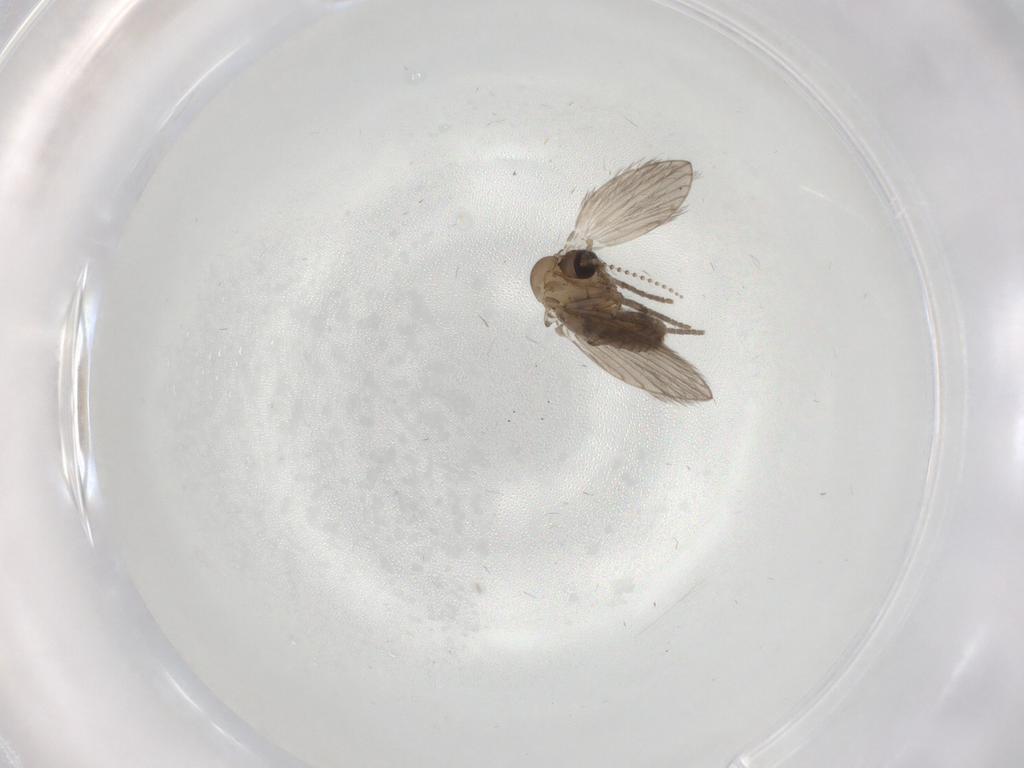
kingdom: Animalia
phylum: Arthropoda
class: Insecta
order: Diptera
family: Psychodidae
